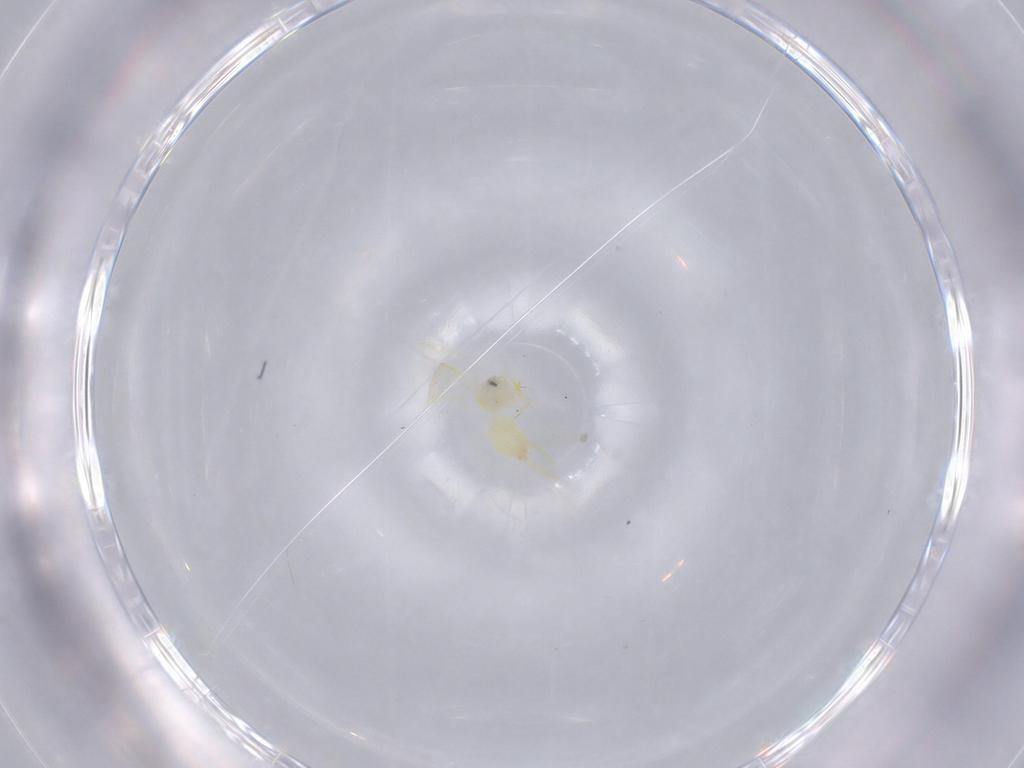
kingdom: Animalia
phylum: Arthropoda
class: Insecta
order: Hemiptera
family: Aleyrodidae
